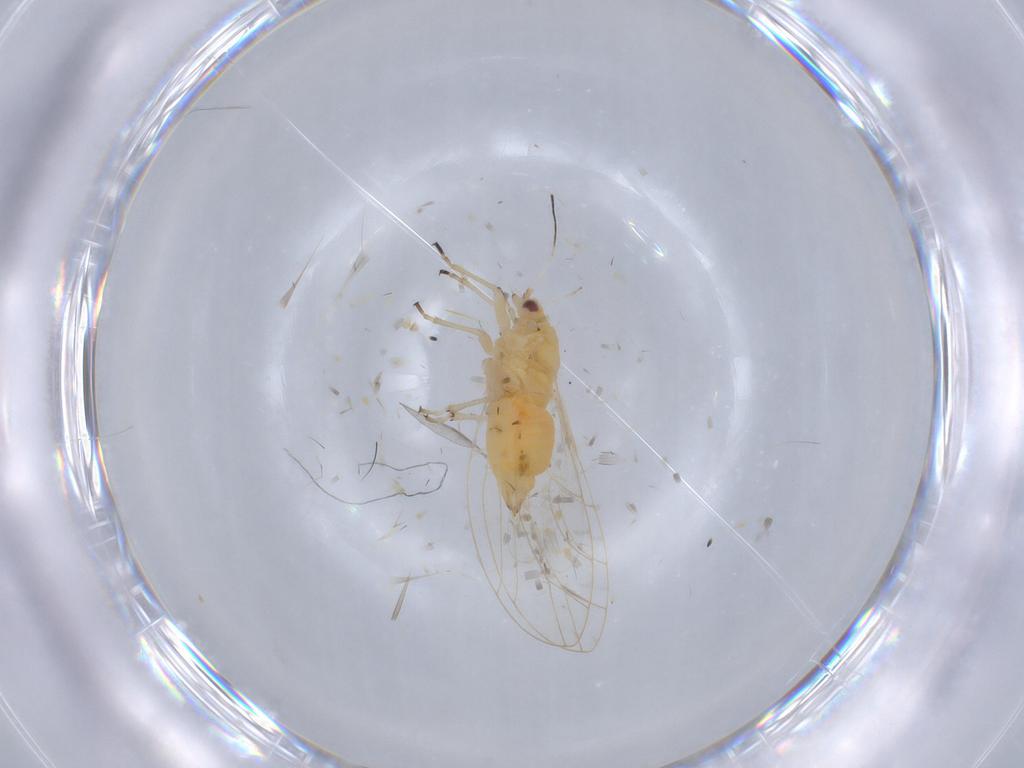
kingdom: Animalia
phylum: Arthropoda
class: Insecta
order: Hemiptera
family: Triozidae
